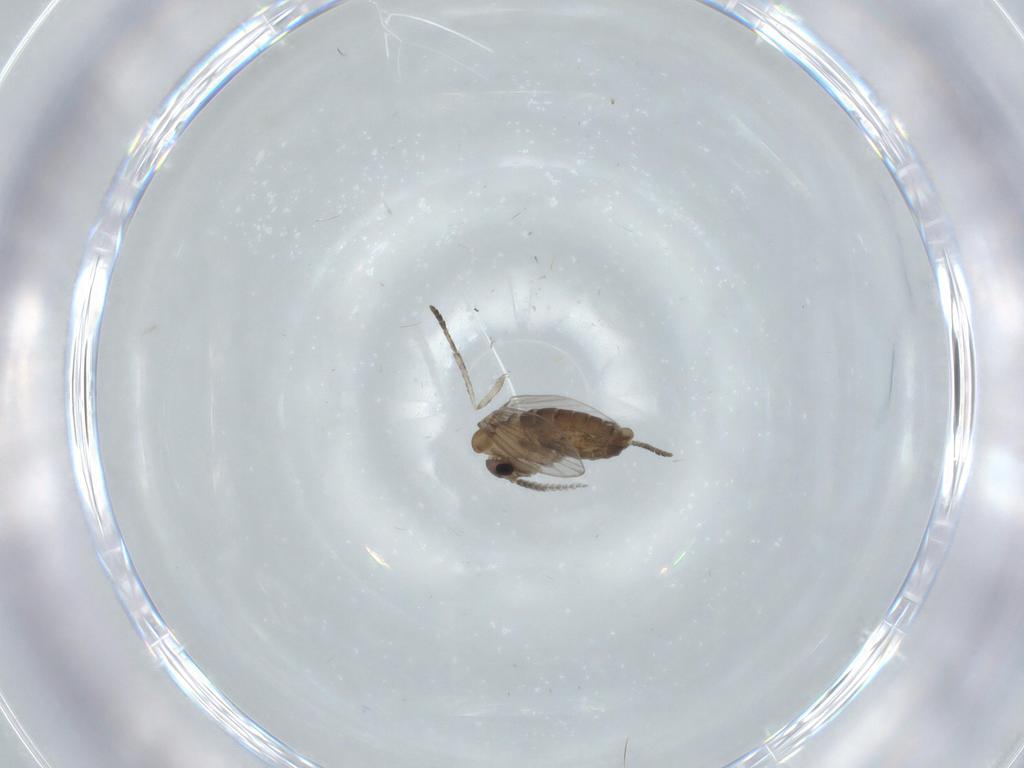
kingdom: Animalia
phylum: Arthropoda
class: Insecta
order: Diptera
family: Psychodidae
